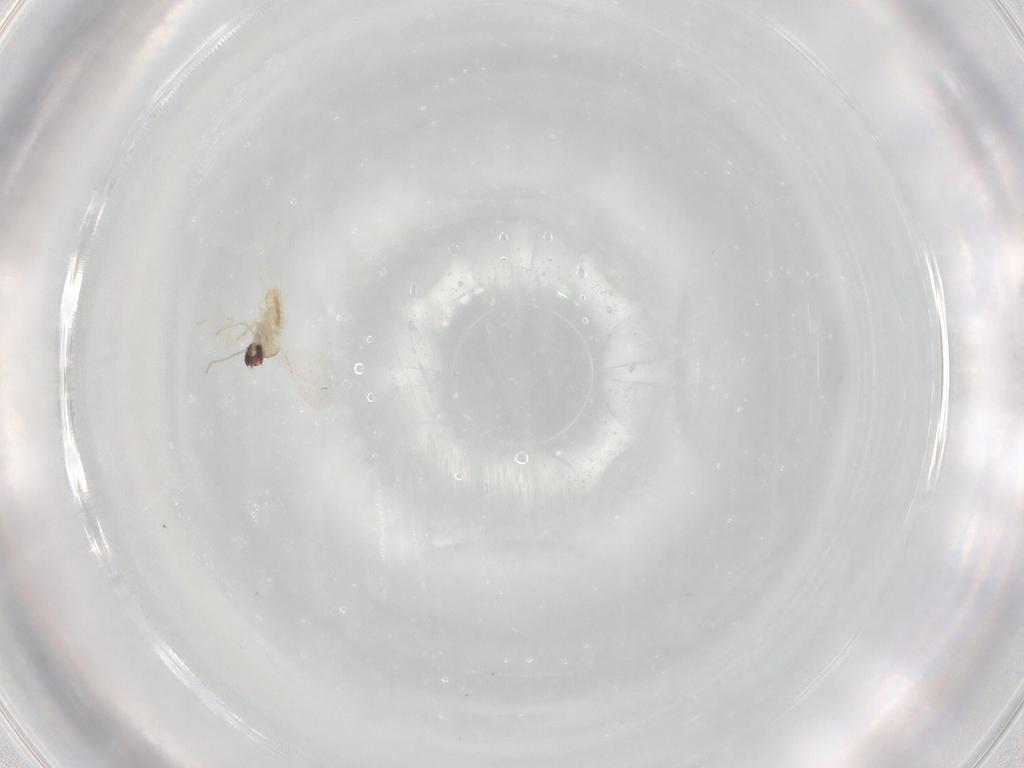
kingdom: Animalia
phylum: Arthropoda
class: Insecta
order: Diptera
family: Cecidomyiidae
